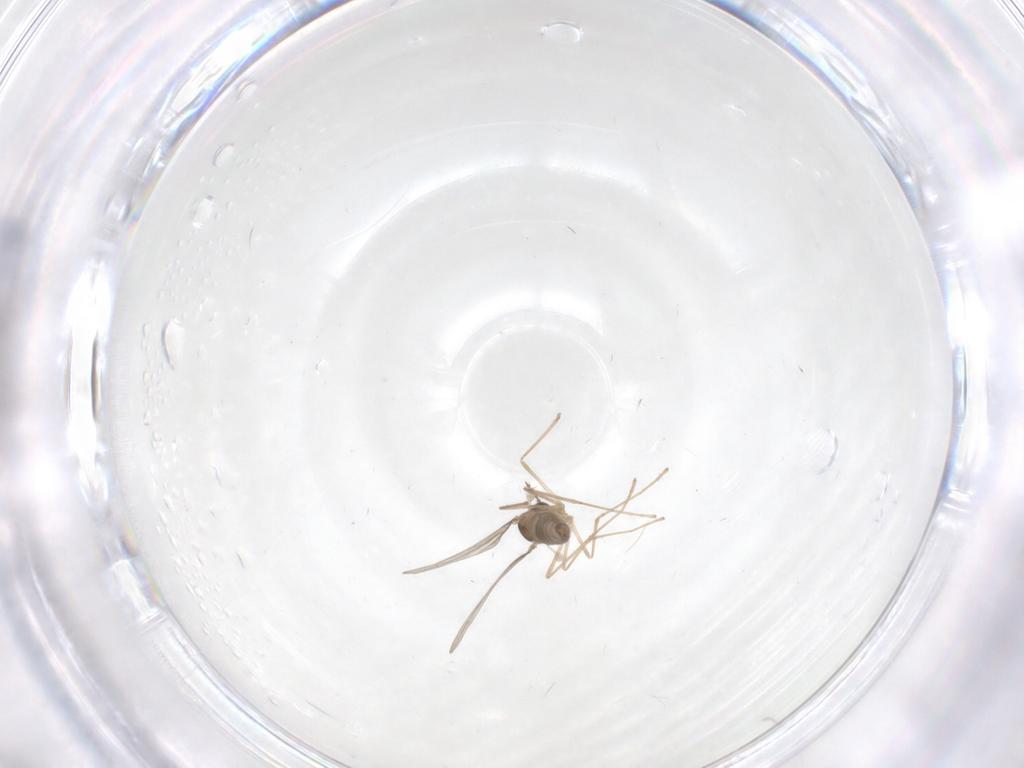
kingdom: Animalia
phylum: Arthropoda
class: Insecta
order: Diptera
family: Cecidomyiidae
